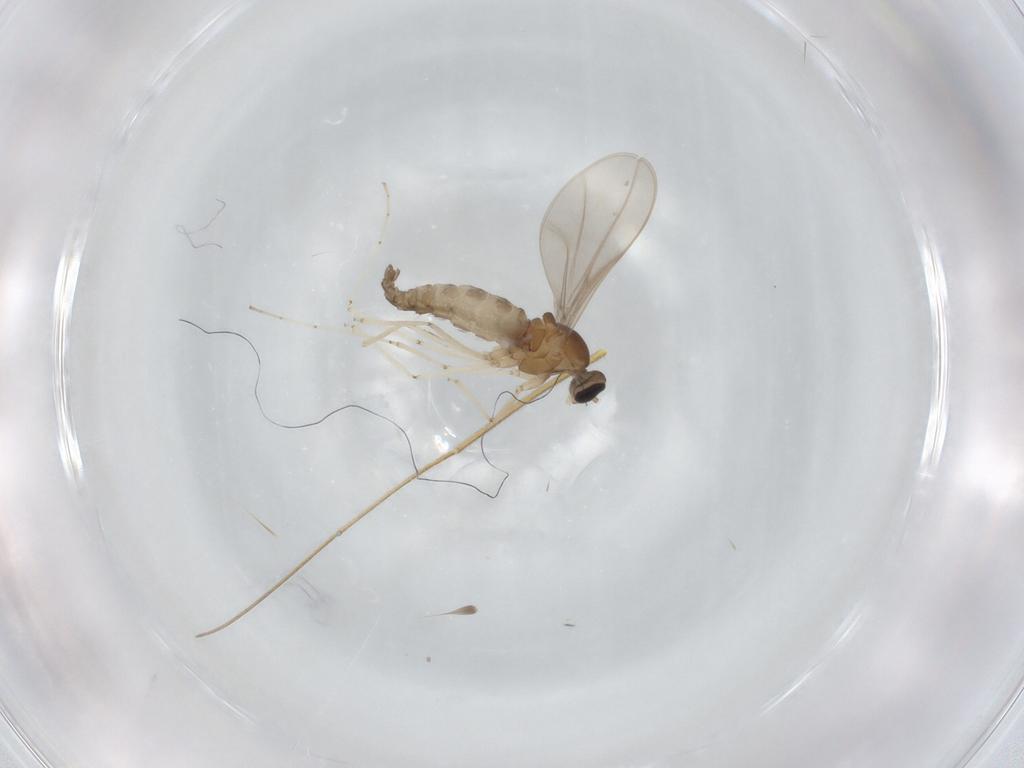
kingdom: Animalia
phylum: Arthropoda
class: Insecta
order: Diptera
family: Cecidomyiidae
